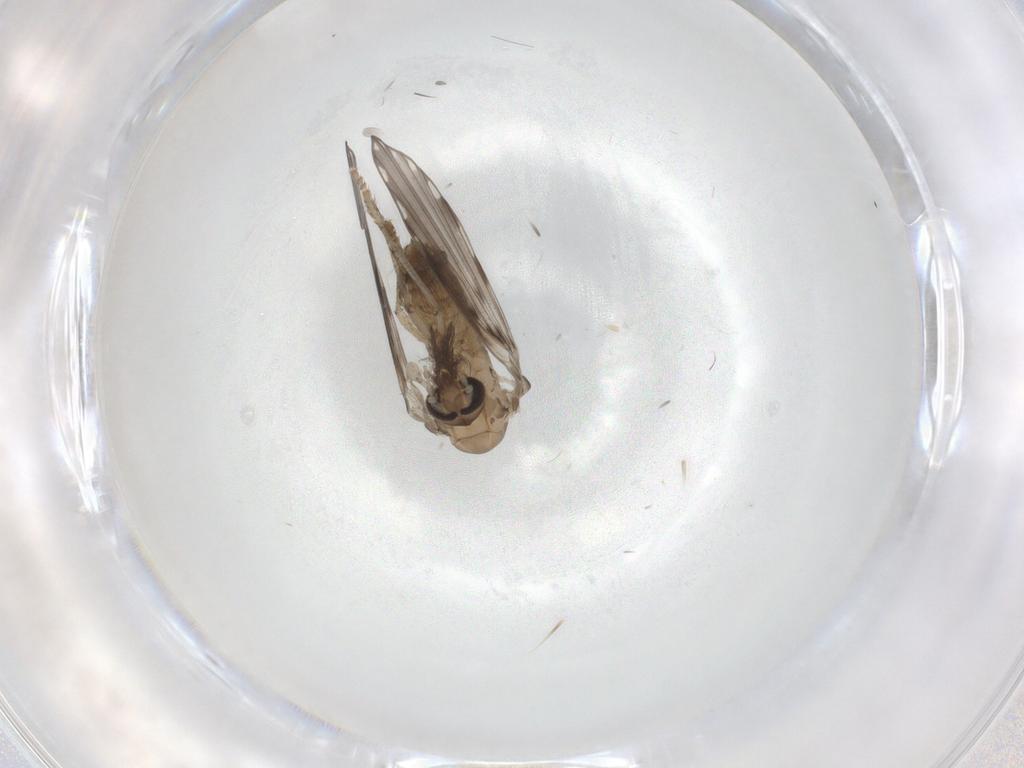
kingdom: Animalia
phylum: Arthropoda
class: Insecta
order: Diptera
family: Psychodidae
